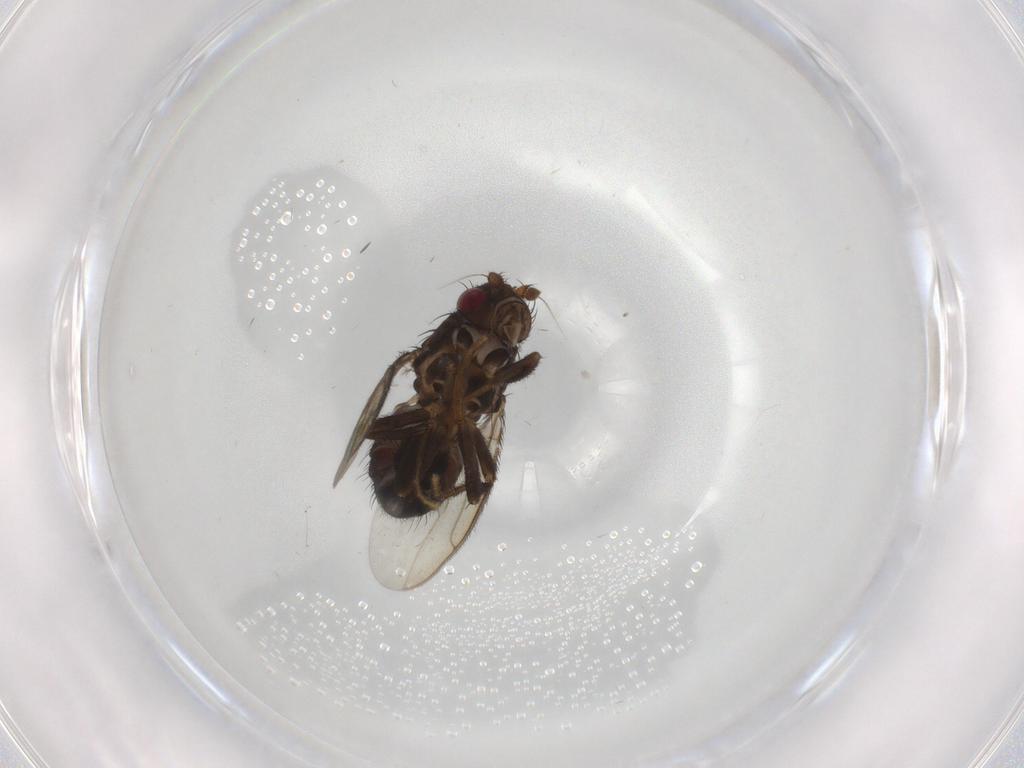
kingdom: Animalia
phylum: Arthropoda
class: Insecta
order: Diptera
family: Sphaeroceridae
